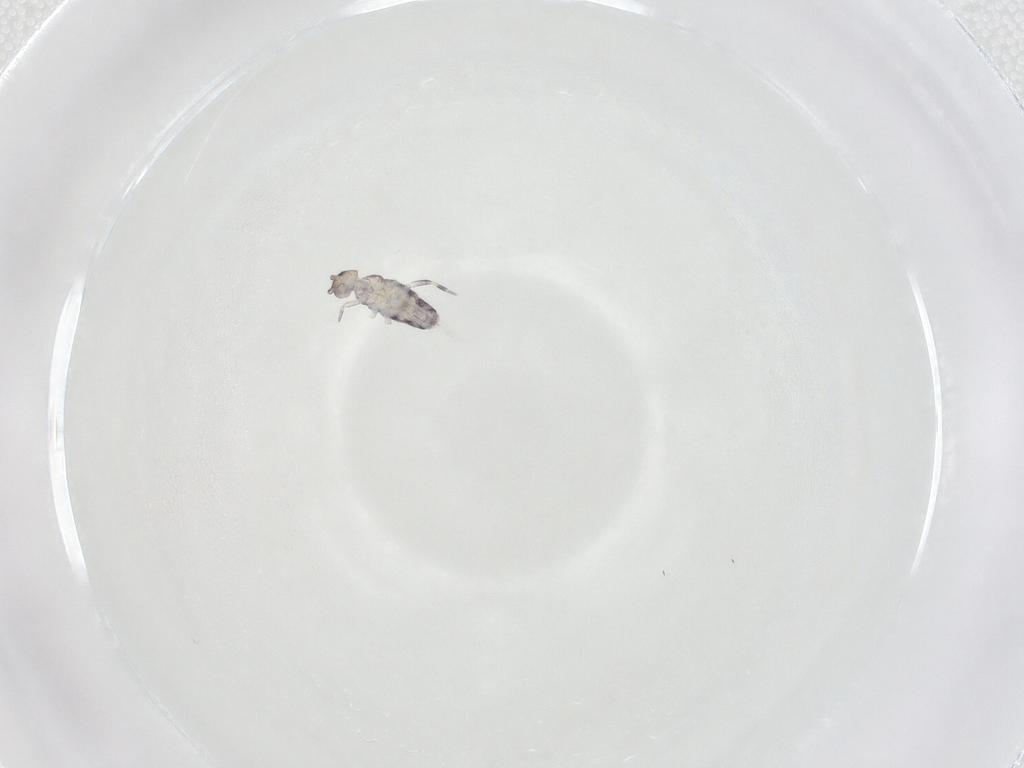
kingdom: Animalia
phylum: Arthropoda
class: Collembola
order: Entomobryomorpha
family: Entomobryidae
